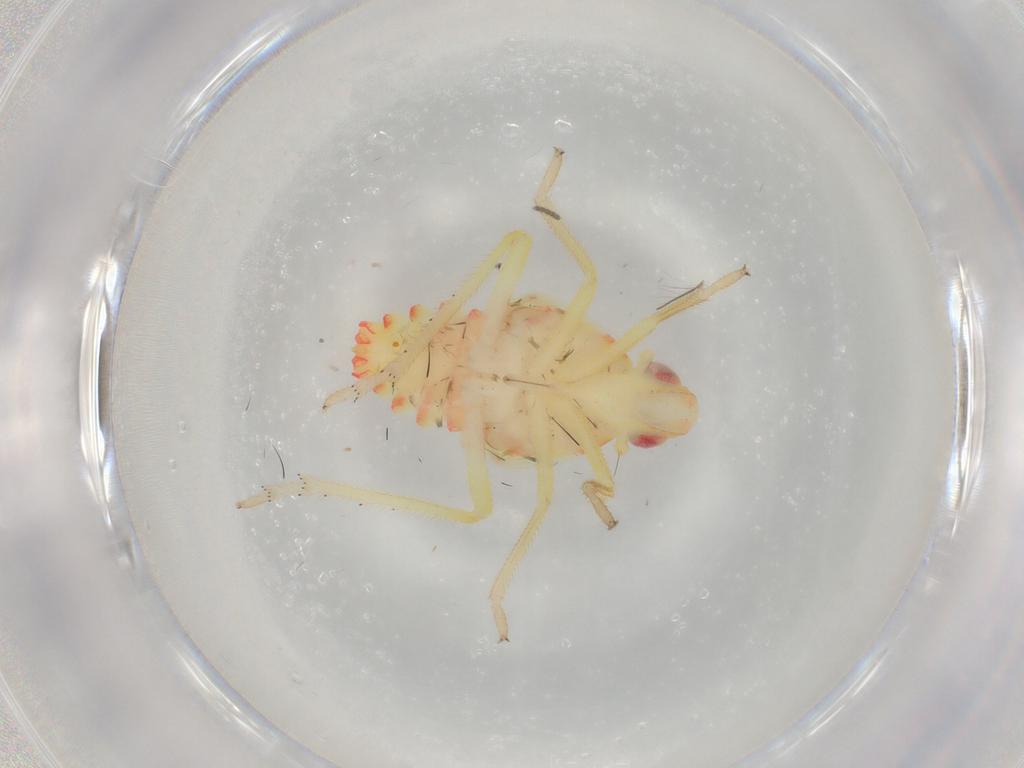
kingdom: Animalia
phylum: Arthropoda
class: Insecta
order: Hemiptera
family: Tropiduchidae
